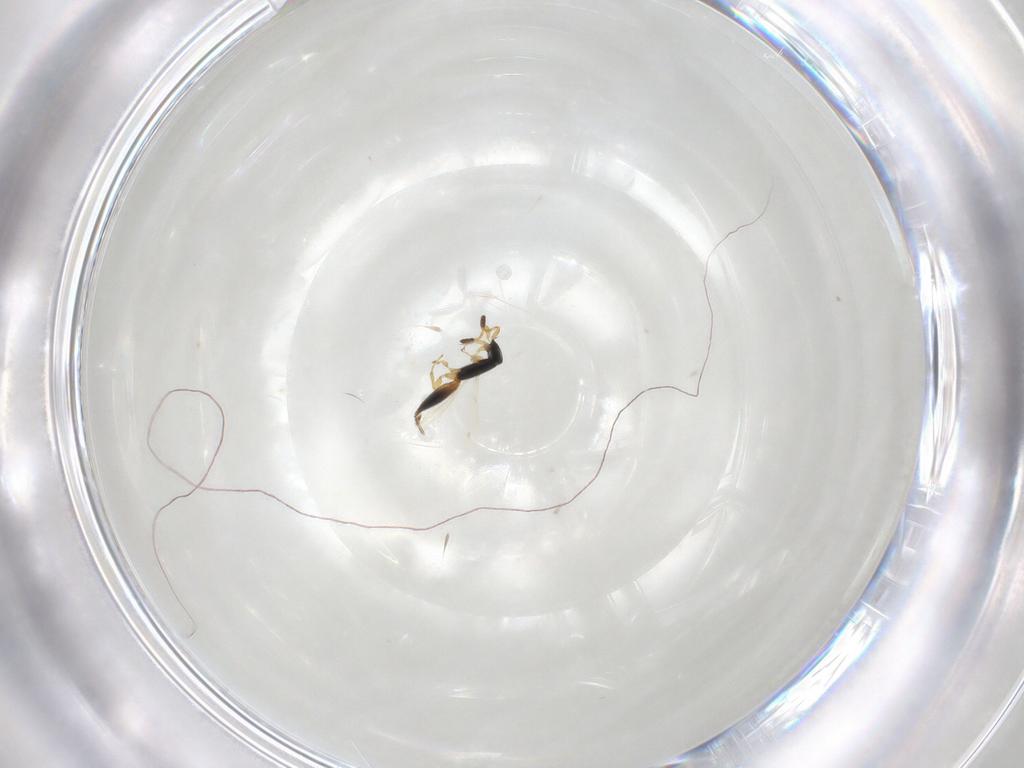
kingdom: Animalia
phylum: Arthropoda
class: Insecta
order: Hymenoptera
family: Scelionidae
